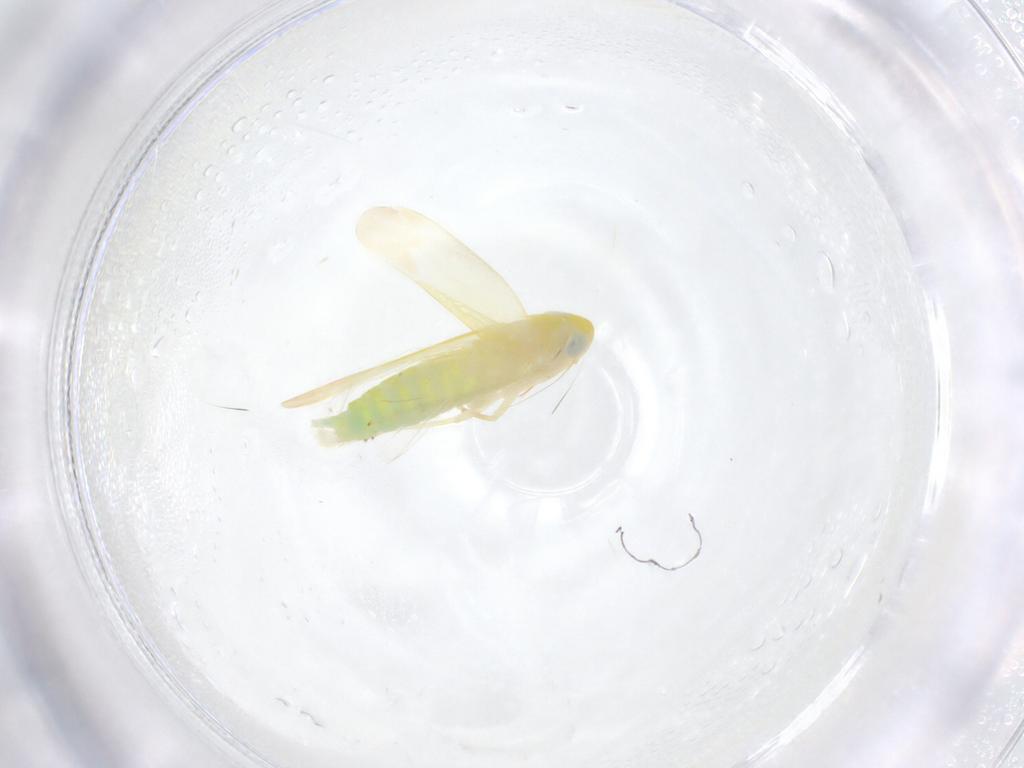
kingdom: Animalia
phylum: Arthropoda
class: Insecta
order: Hemiptera
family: Cicadellidae
